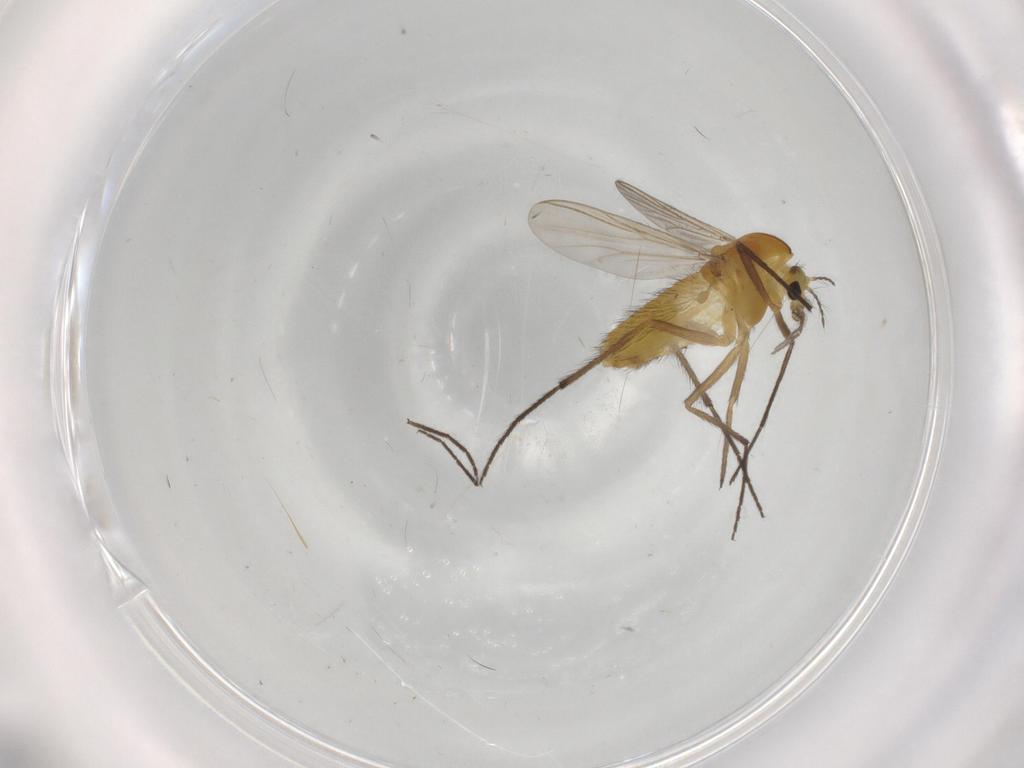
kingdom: Animalia
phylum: Arthropoda
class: Insecta
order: Diptera
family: Chironomidae
